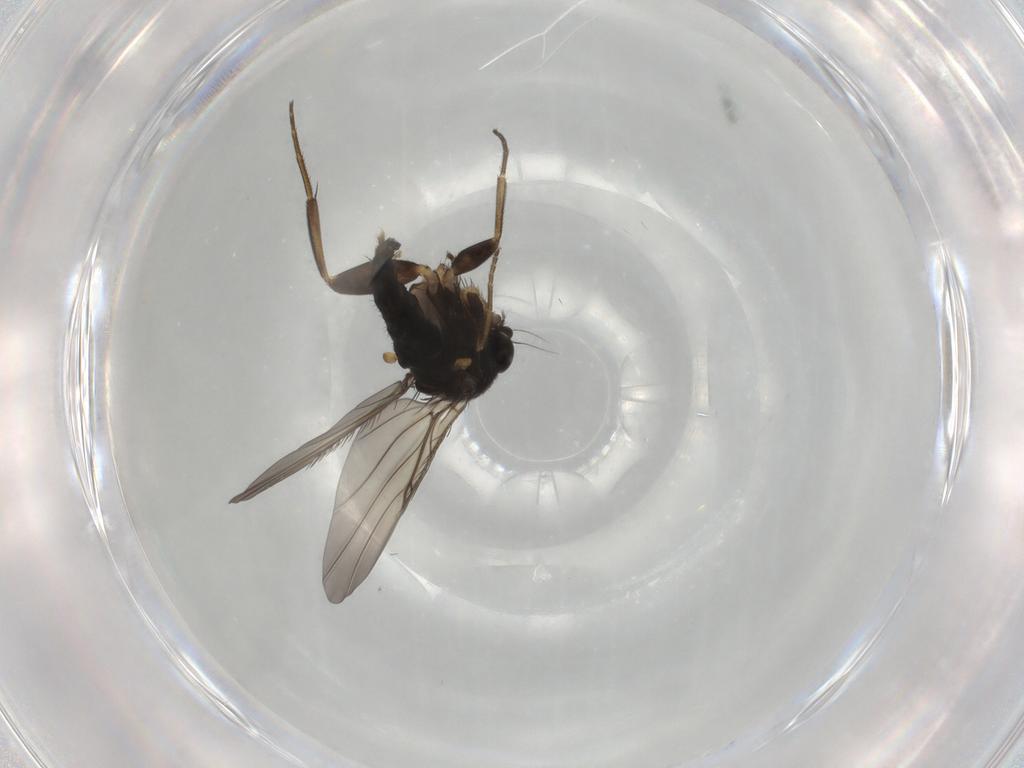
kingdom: Animalia
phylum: Arthropoda
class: Insecta
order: Diptera
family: Phoridae
